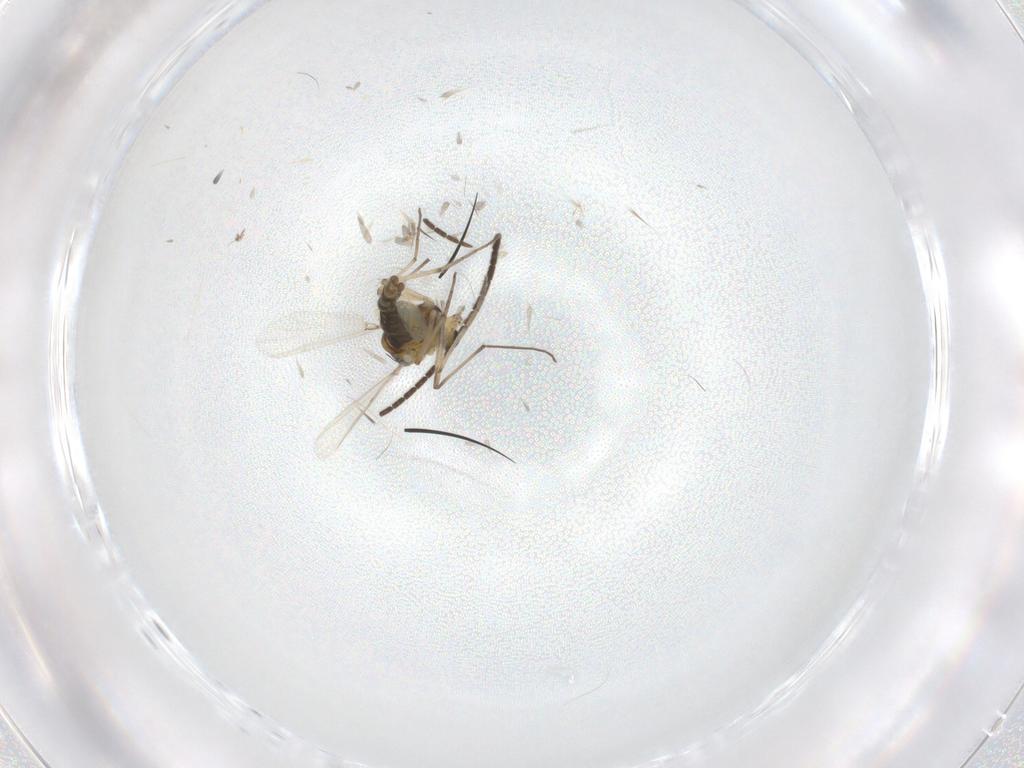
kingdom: Animalia
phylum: Arthropoda
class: Insecta
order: Diptera
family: Chironomidae
